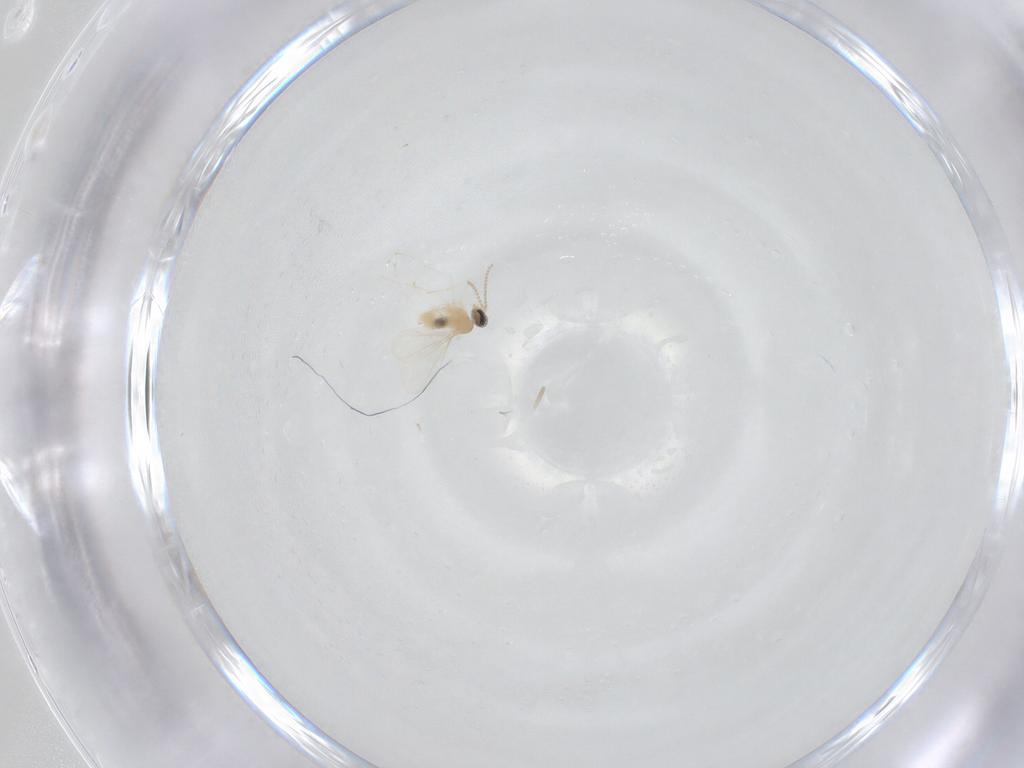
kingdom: Animalia
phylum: Arthropoda
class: Insecta
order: Diptera
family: Cecidomyiidae
